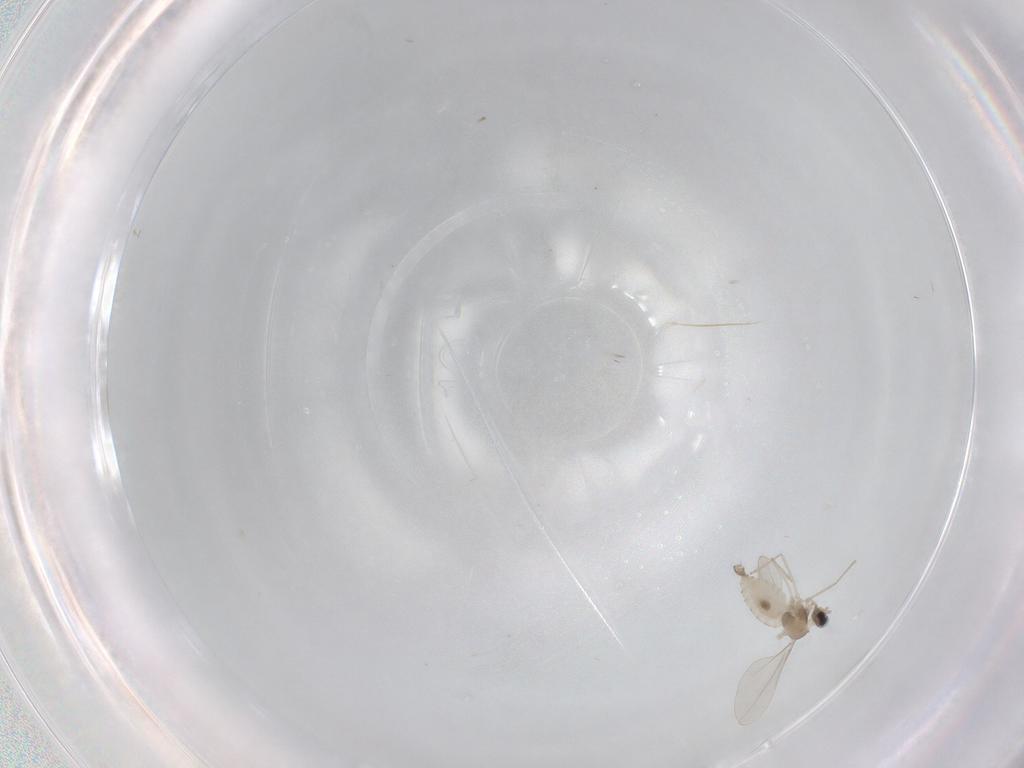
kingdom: Animalia
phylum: Arthropoda
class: Insecta
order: Diptera
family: Cecidomyiidae
